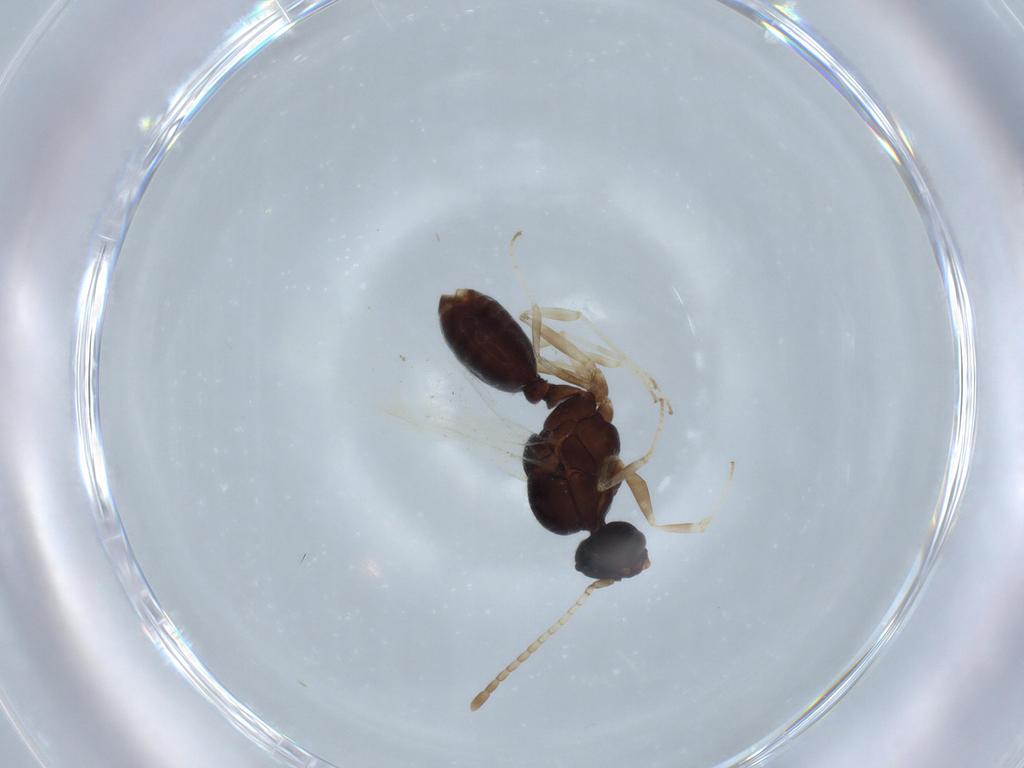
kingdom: Animalia
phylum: Arthropoda
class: Insecta
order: Hymenoptera
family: Formicidae
